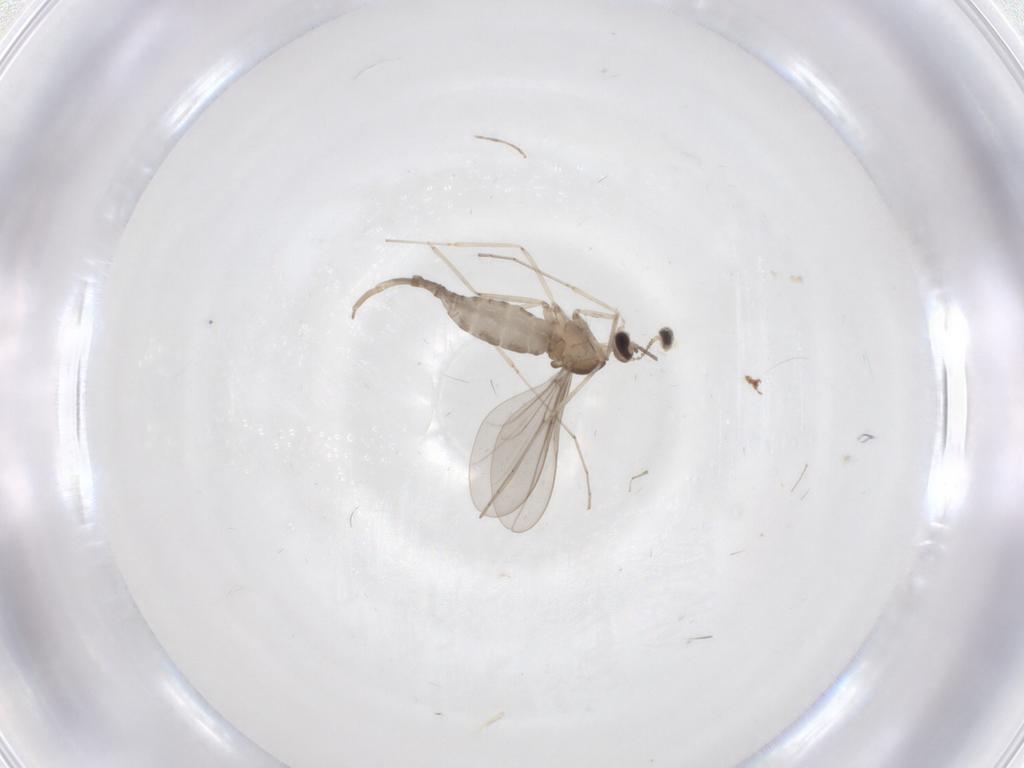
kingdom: Animalia
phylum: Arthropoda
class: Insecta
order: Diptera
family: Cecidomyiidae
